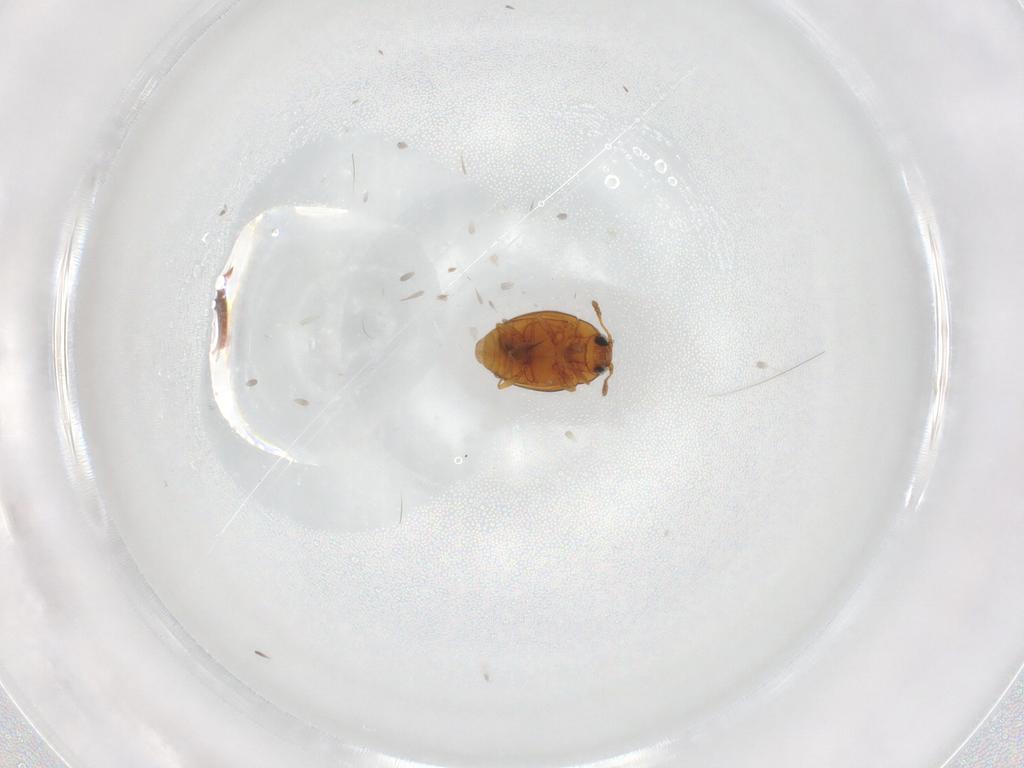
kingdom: Animalia
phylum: Arthropoda
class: Insecta
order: Coleoptera
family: Cryptophagidae
